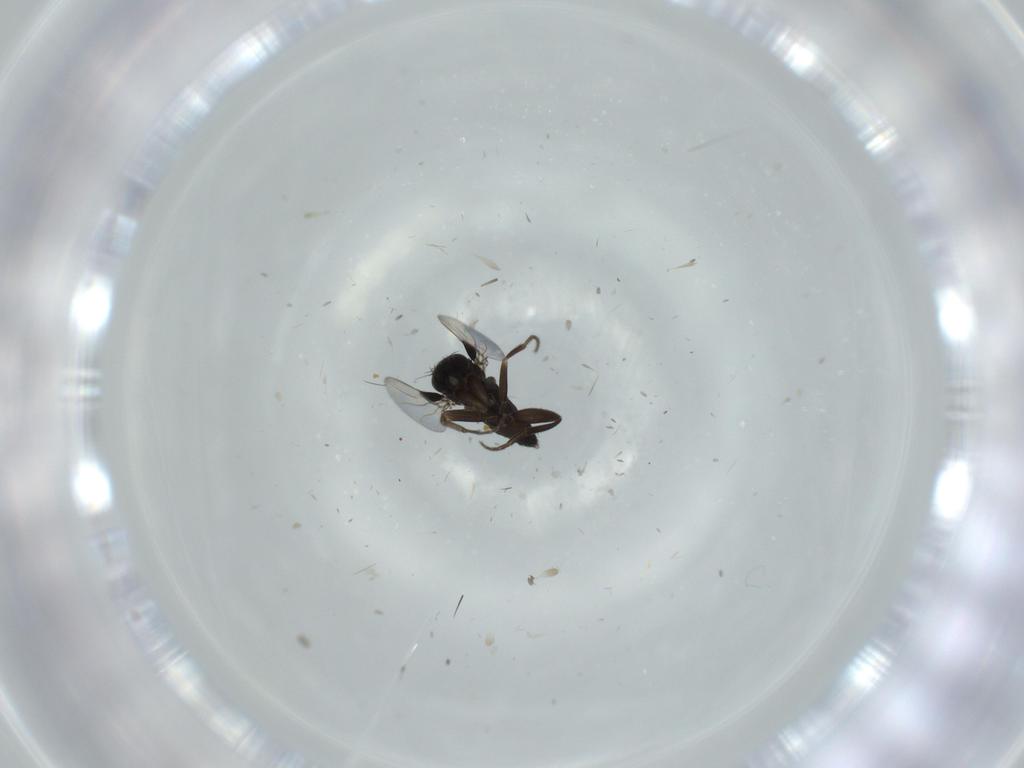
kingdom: Animalia
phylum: Arthropoda
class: Insecta
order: Diptera
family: Phoridae
